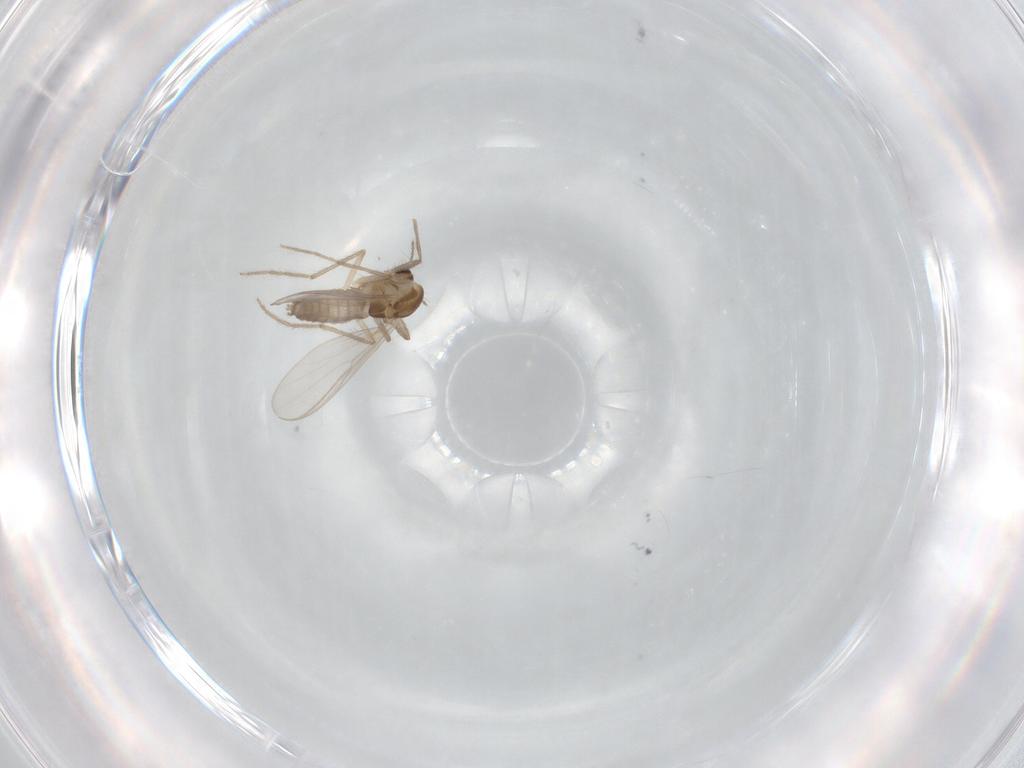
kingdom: Animalia
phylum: Arthropoda
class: Insecta
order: Diptera
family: Chironomidae
